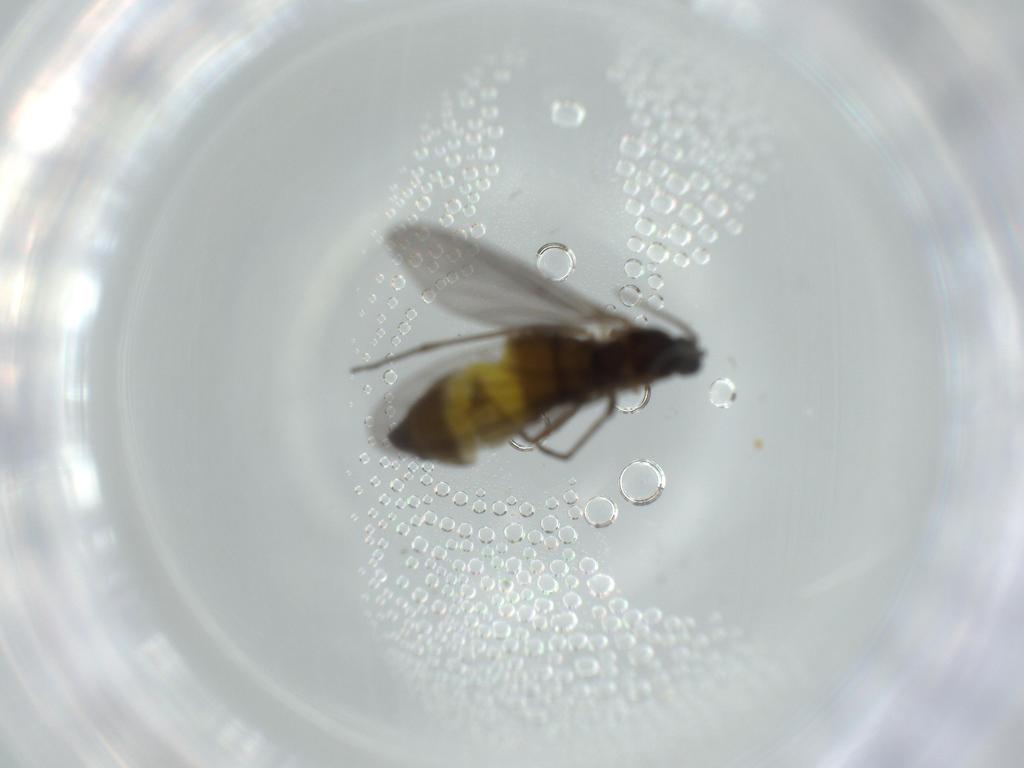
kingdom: Animalia
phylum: Arthropoda
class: Insecta
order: Diptera
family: Sciaridae
